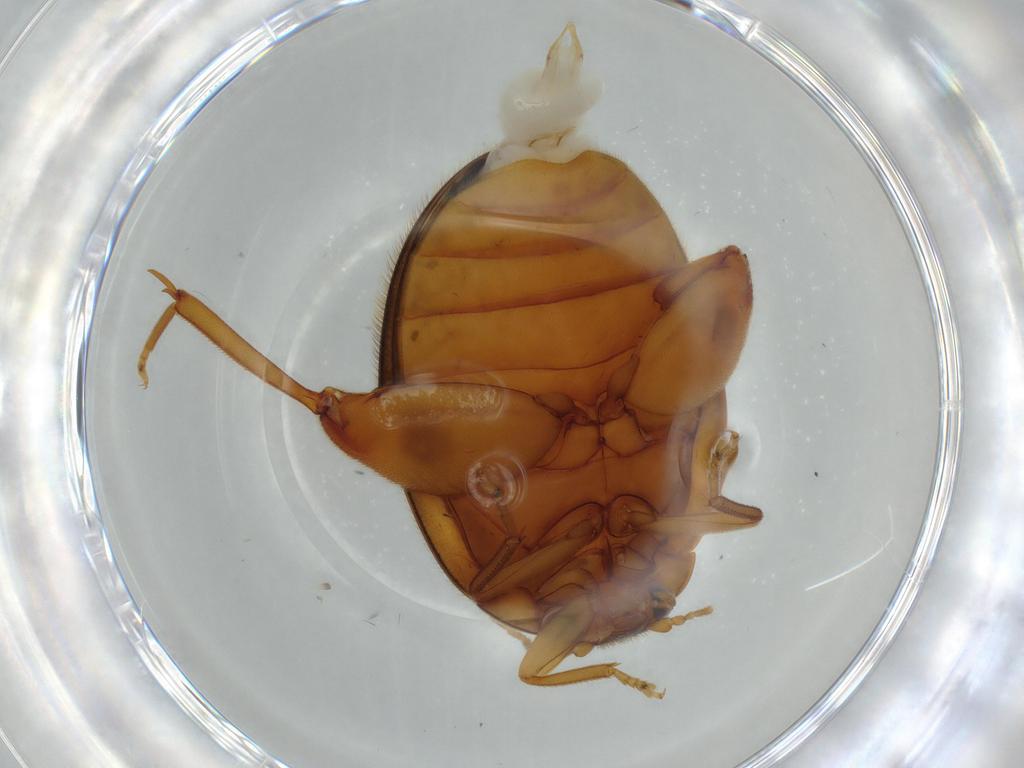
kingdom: Animalia
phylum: Arthropoda
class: Insecta
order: Coleoptera
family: Scirtidae
